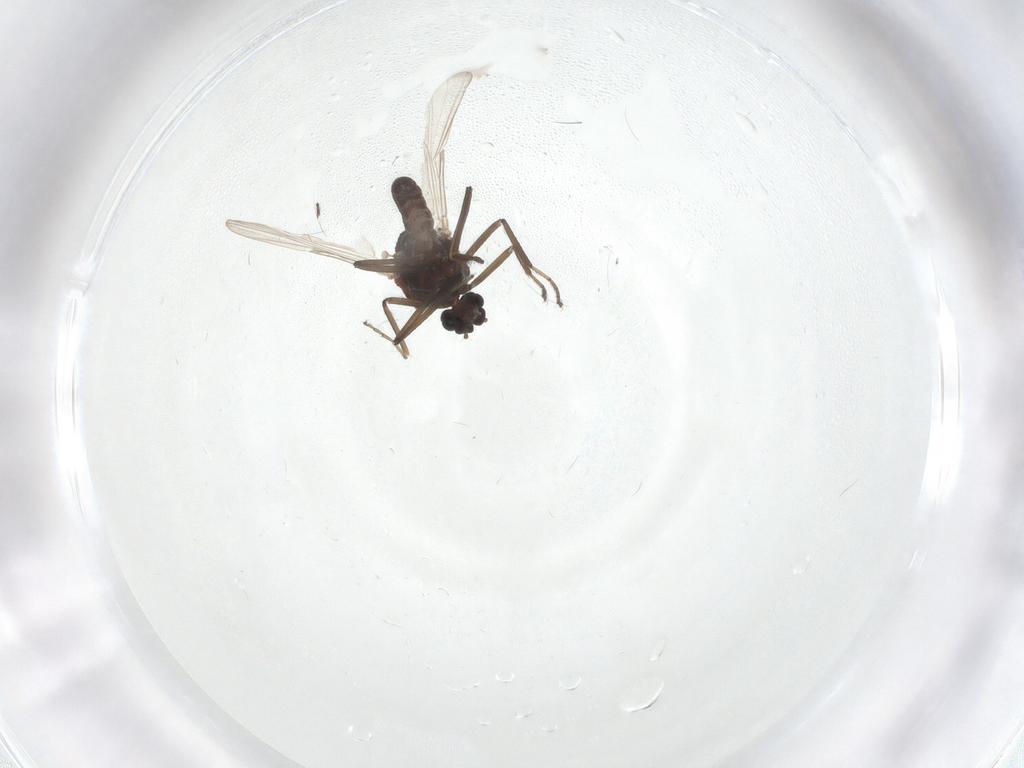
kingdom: Animalia
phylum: Arthropoda
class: Insecta
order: Diptera
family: Ceratopogonidae
